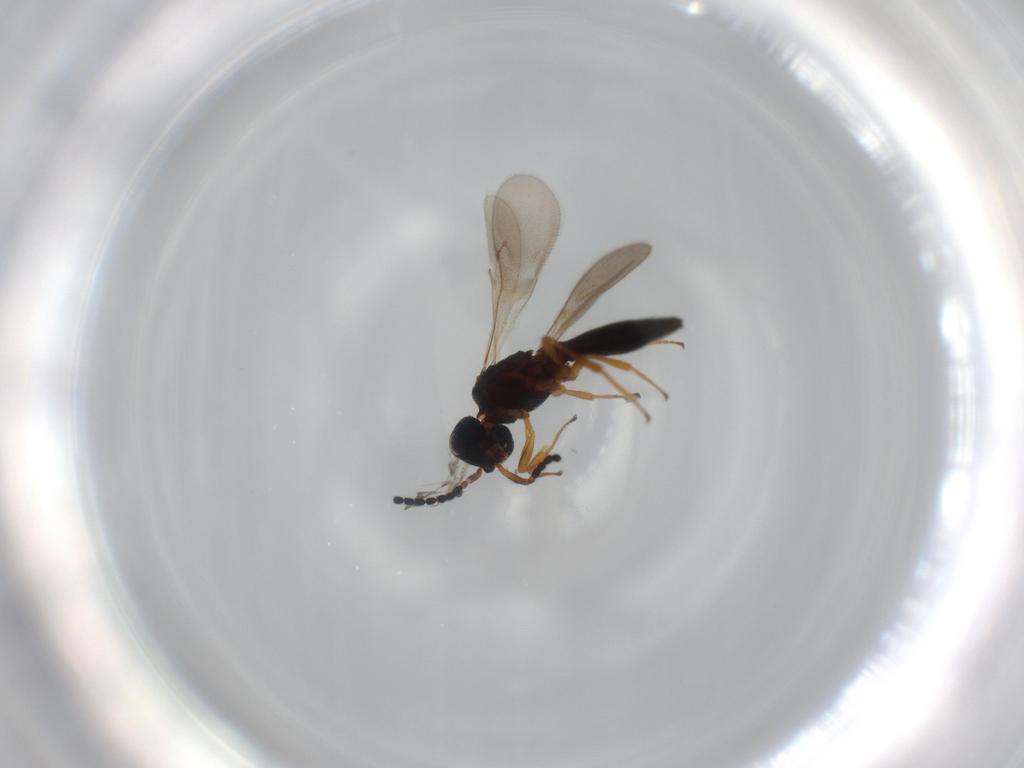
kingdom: Animalia
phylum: Arthropoda
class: Insecta
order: Hymenoptera
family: Scelionidae
